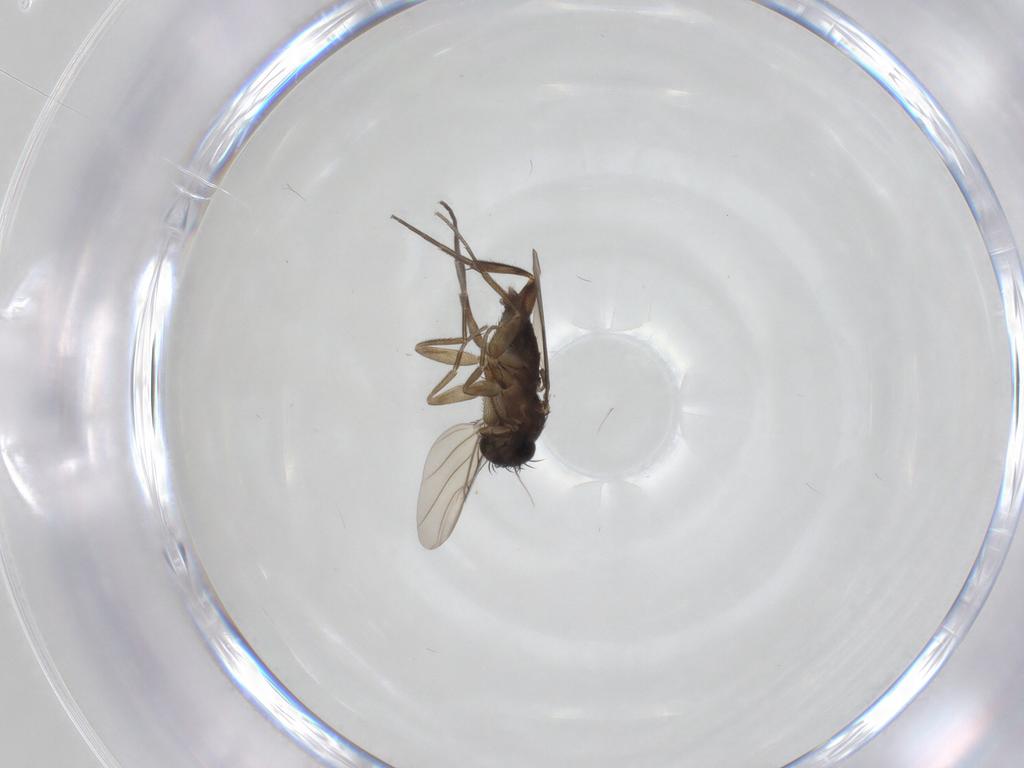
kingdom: Animalia
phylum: Arthropoda
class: Insecta
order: Diptera
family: Phoridae
